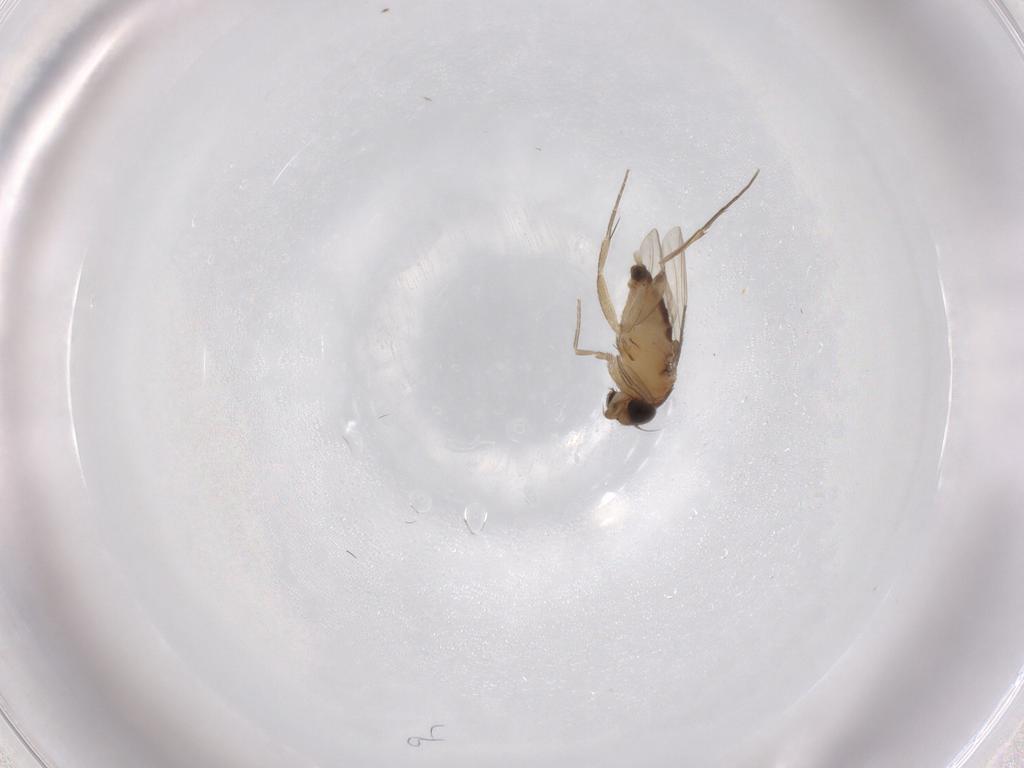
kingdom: Animalia
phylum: Arthropoda
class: Insecta
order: Diptera
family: Phoridae
